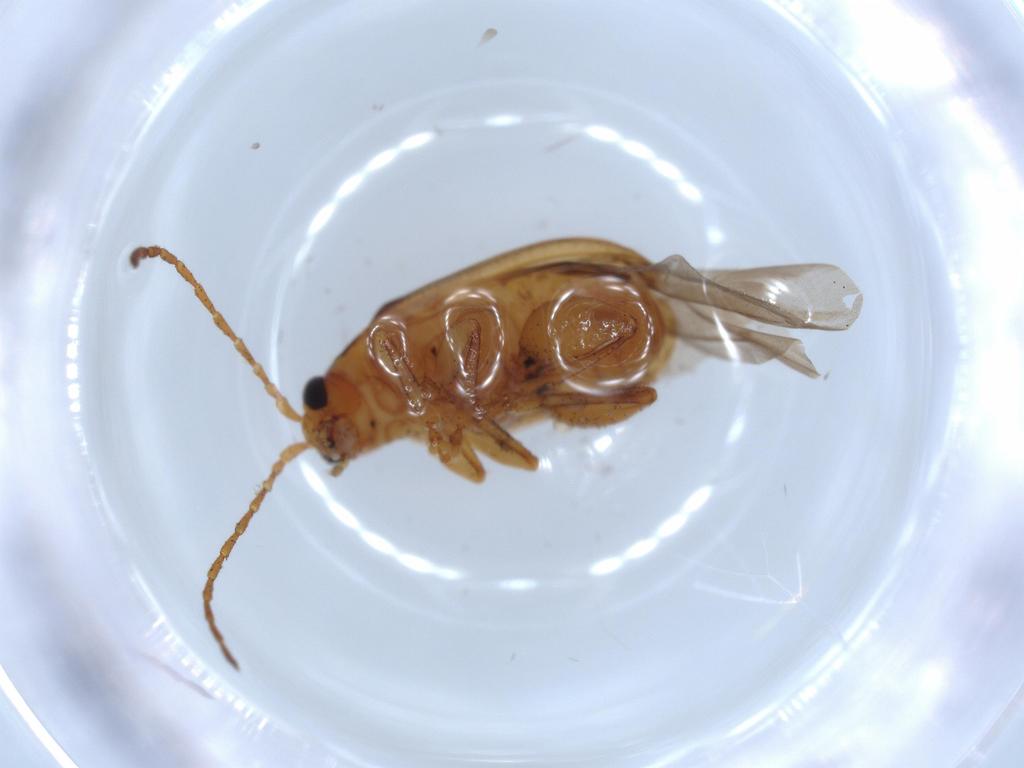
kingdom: Animalia
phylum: Arthropoda
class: Insecta
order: Coleoptera
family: Chrysomelidae
